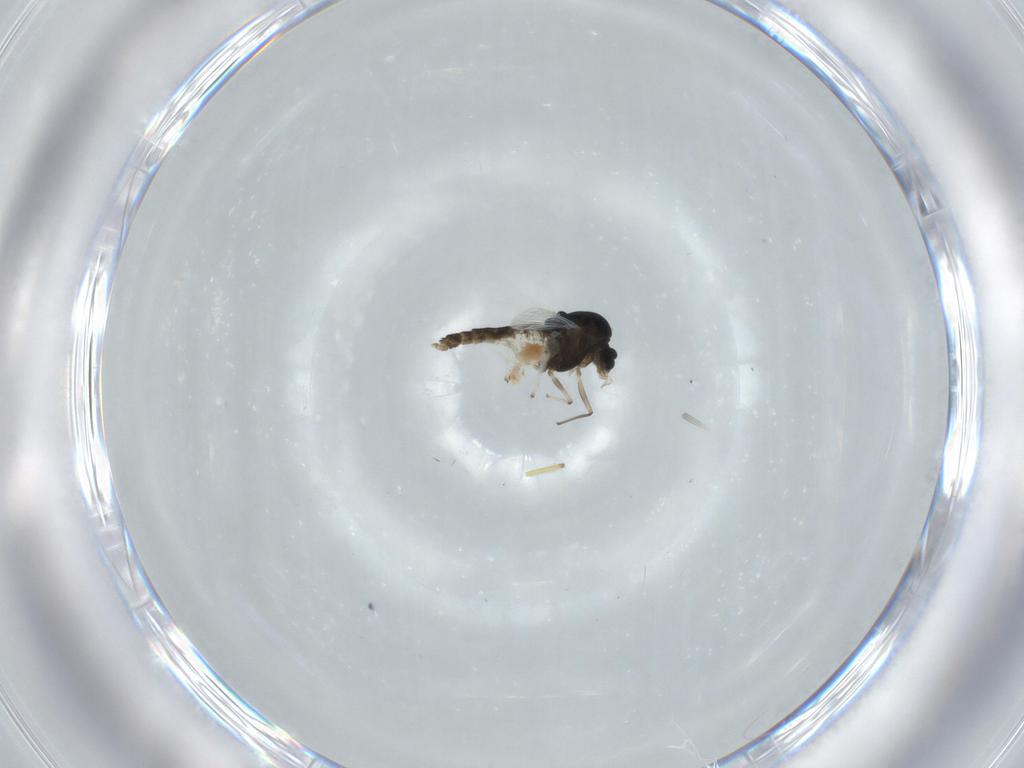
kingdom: Animalia
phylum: Arthropoda
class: Insecta
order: Diptera
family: Chironomidae
